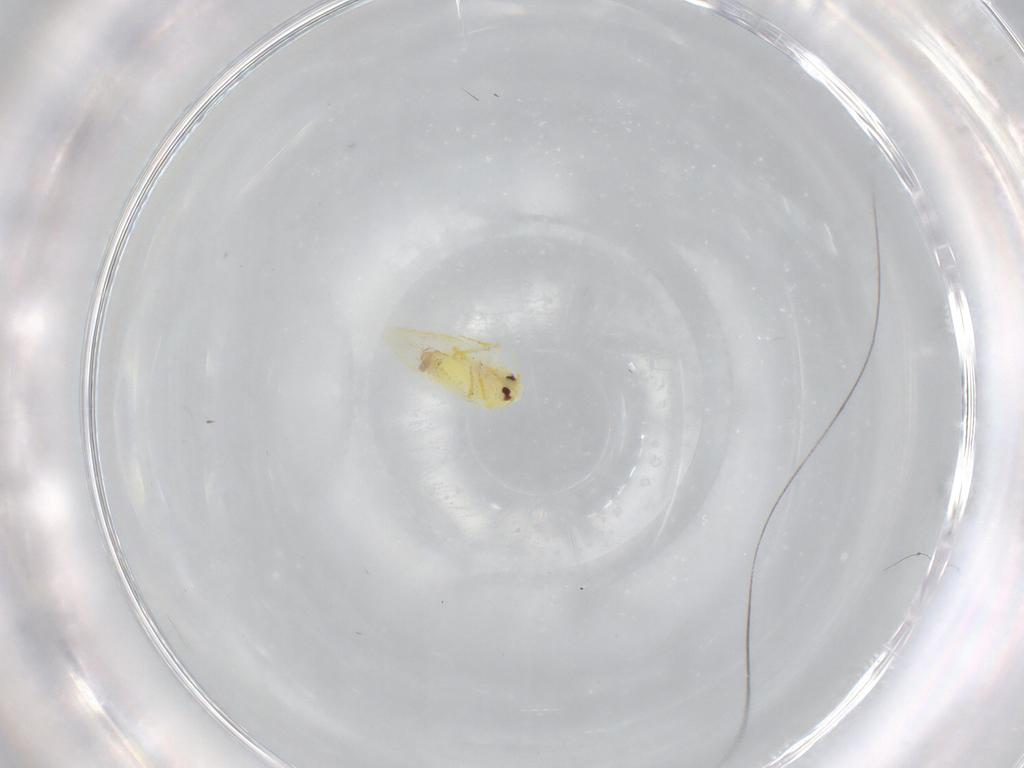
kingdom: Animalia
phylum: Arthropoda
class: Insecta
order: Hemiptera
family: Aleyrodidae
